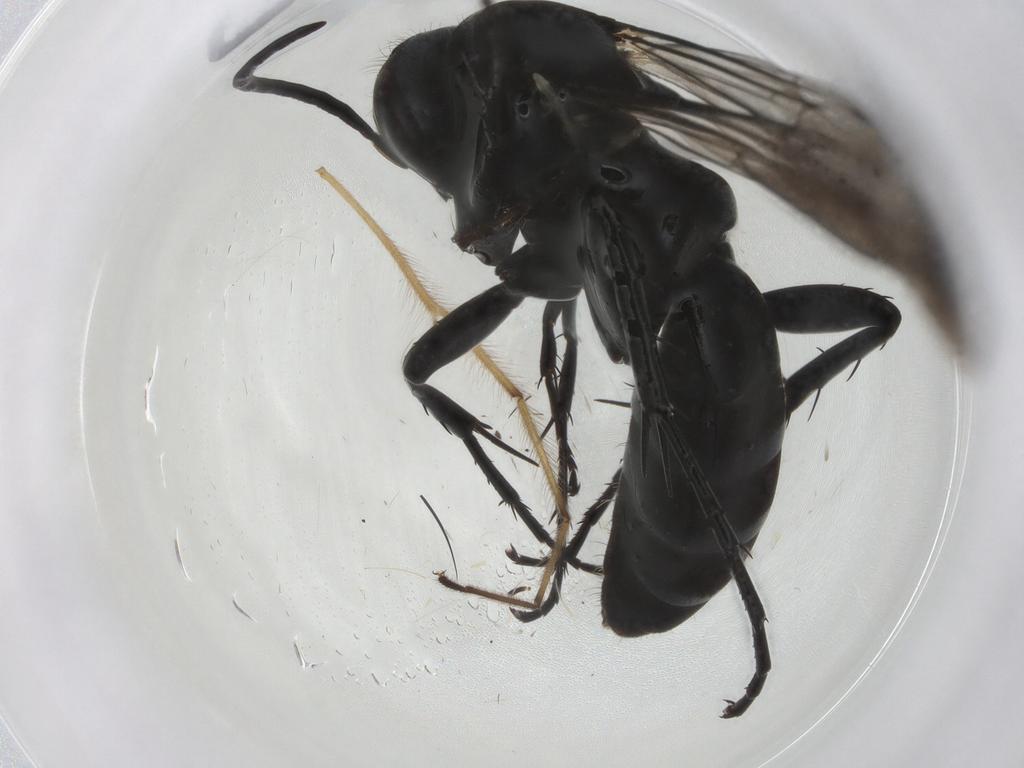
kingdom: Animalia
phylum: Arthropoda
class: Insecta
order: Hymenoptera
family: Pompilidae
